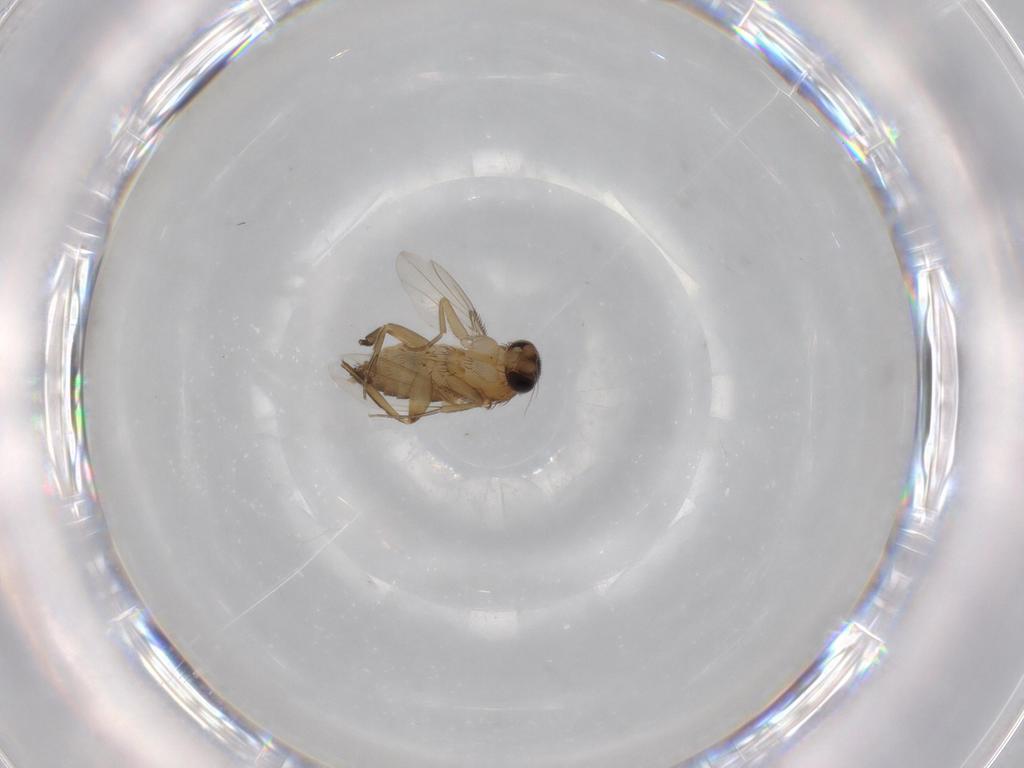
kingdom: Animalia
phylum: Arthropoda
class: Insecta
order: Diptera
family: Phoridae
